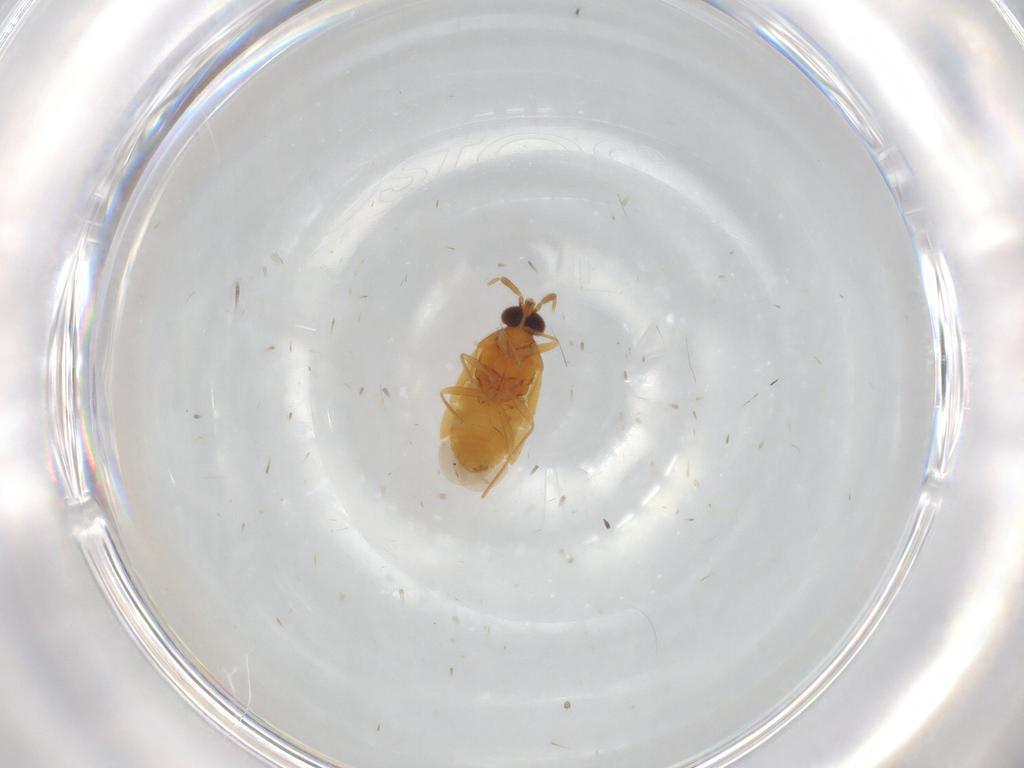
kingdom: Animalia
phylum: Arthropoda
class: Insecta
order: Hemiptera
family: Anthocoridae
